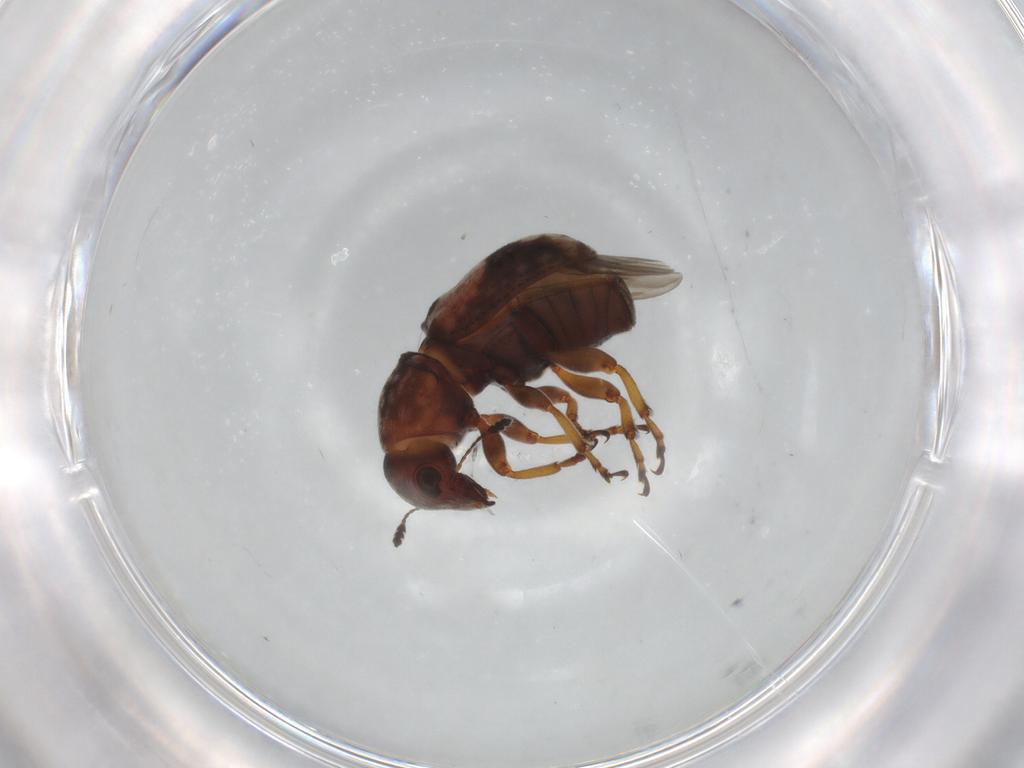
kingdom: Animalia
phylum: Arthropoda
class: Insecta
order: Coleoptera
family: Anthribidae
